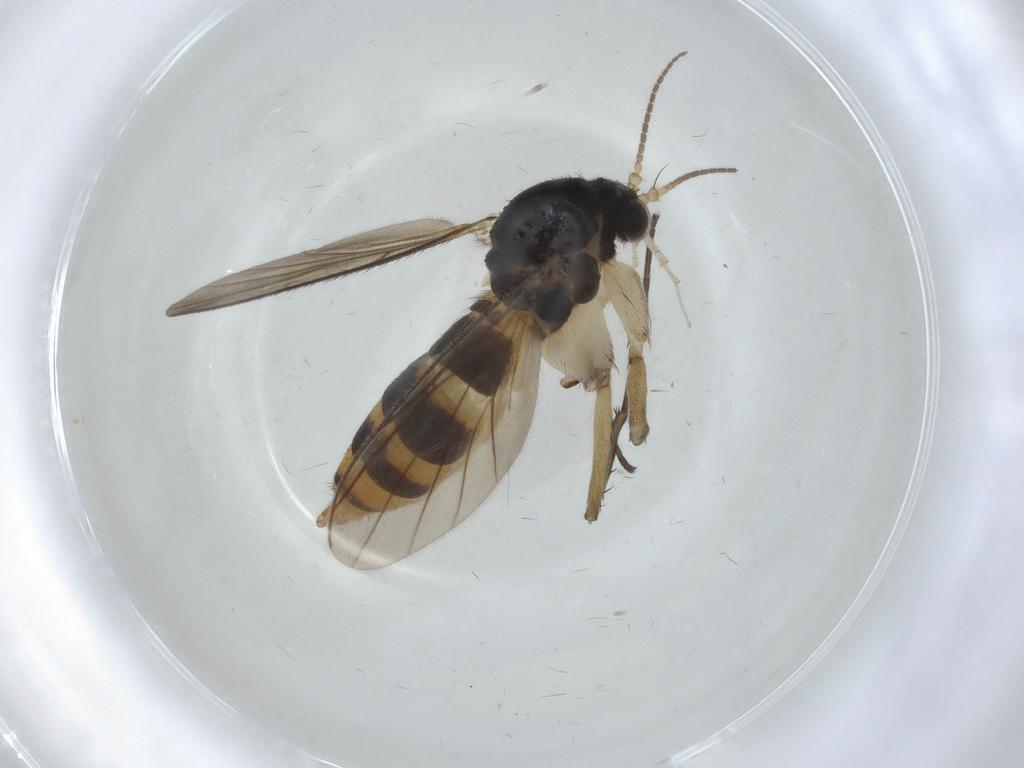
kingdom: Animalia
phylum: Arthropoda
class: Insecta
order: Diptera
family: Mycetophilidae
